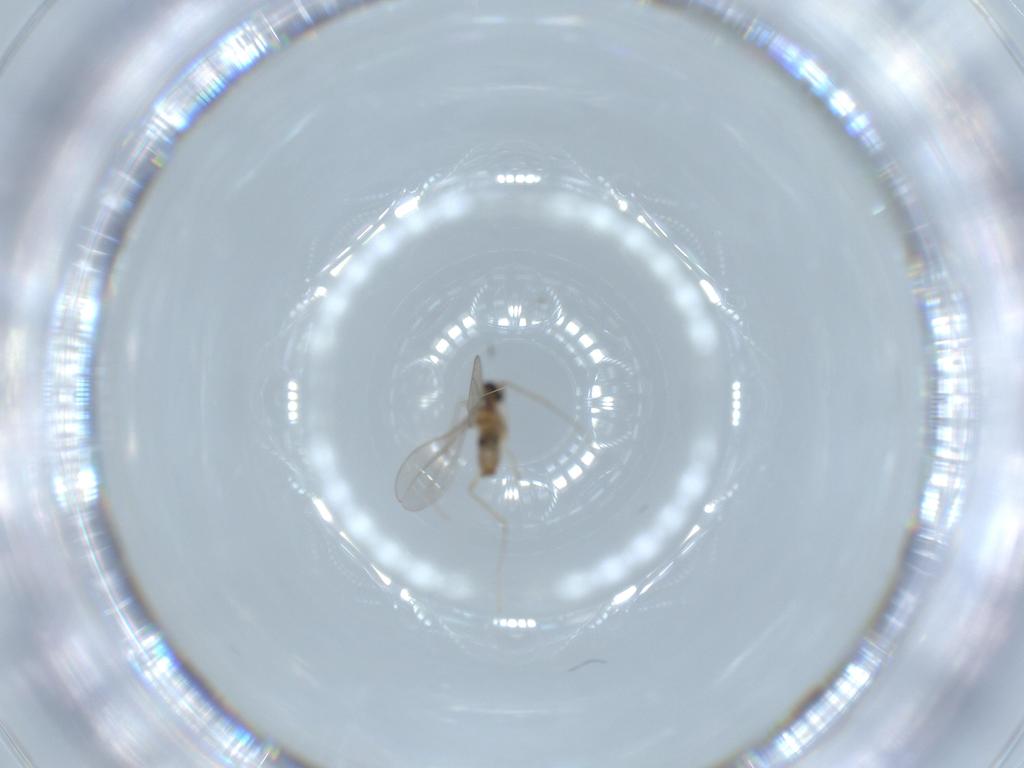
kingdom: Animalia
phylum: Arthropoda
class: Insecta
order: Diptera
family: Cecidomyiidae
